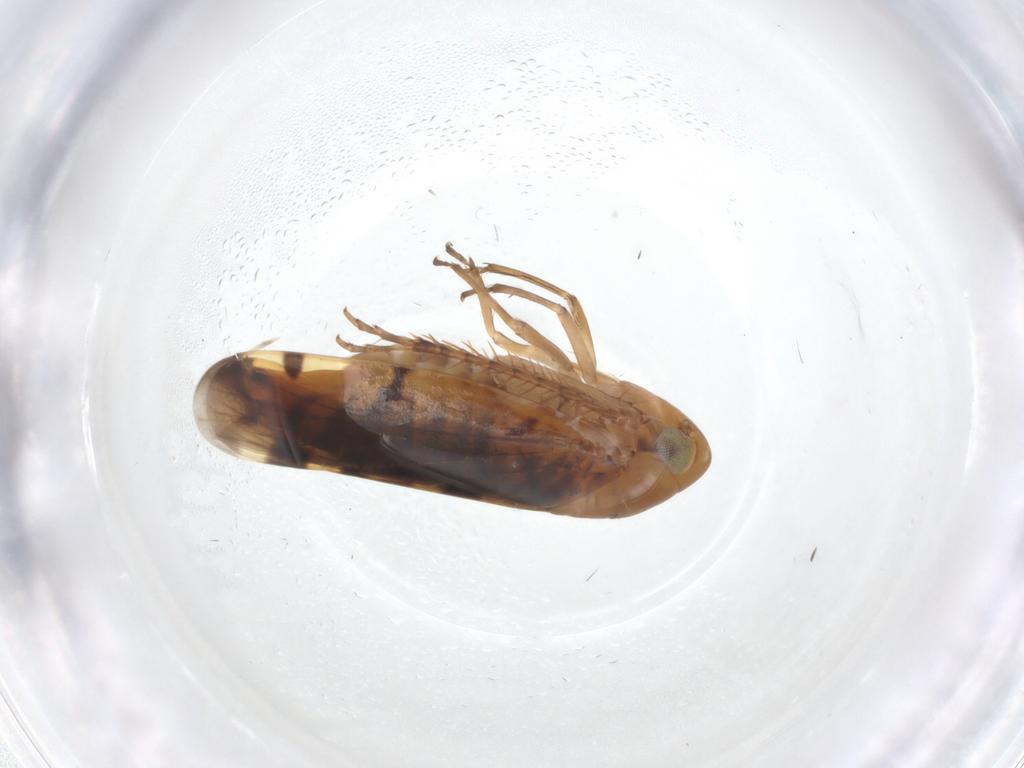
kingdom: Animalia
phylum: Arthropoda
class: Insecta
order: Hemiptera
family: Cicadellidae
